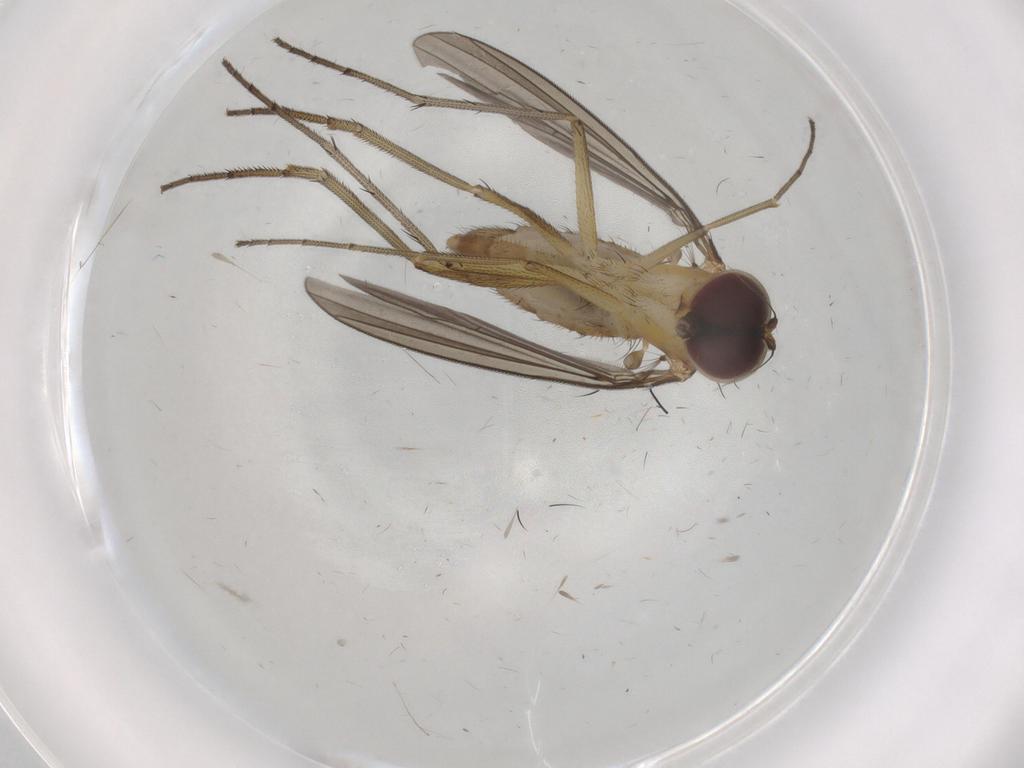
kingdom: Animalia
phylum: Arthropoda
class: Insecta
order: Diptera
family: Dolichopodidae
